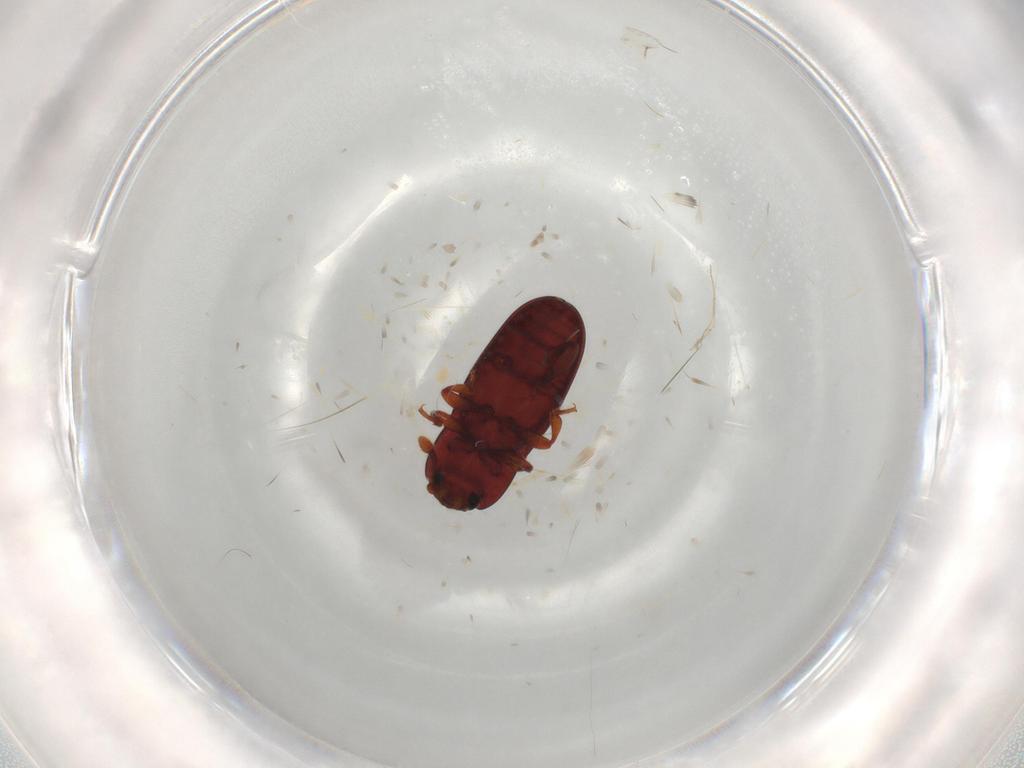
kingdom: Animalia
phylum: Arthropoda
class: Insecta
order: Coleoptera
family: Cerylonidae
